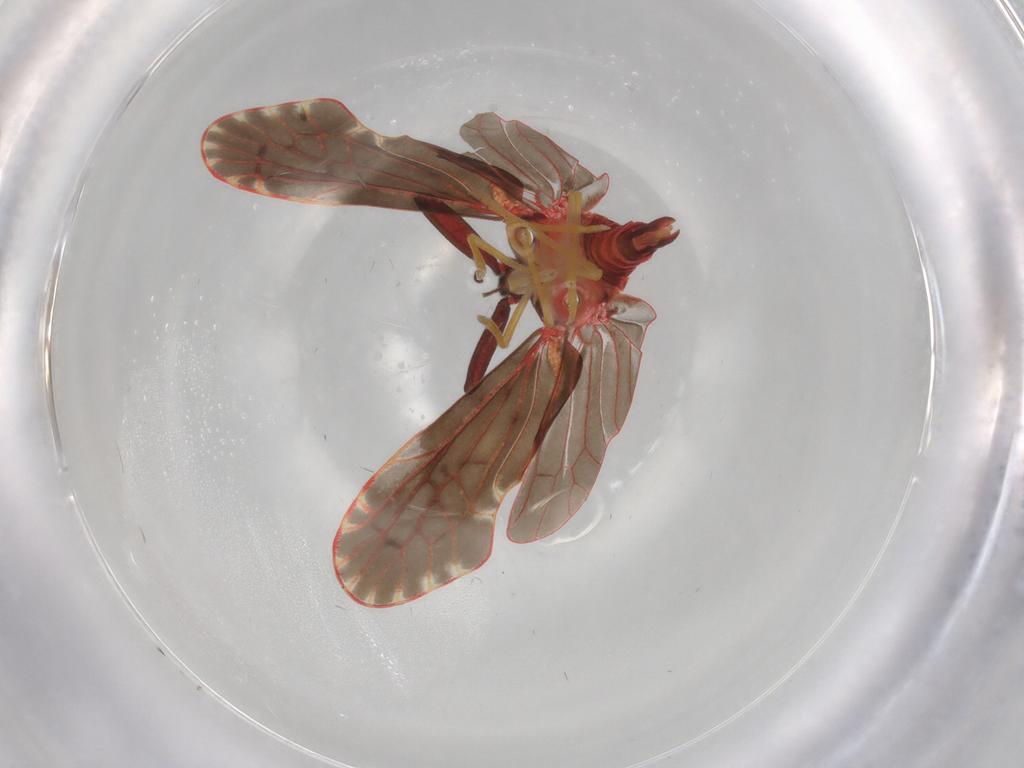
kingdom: Animalia
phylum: Arthropoda
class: Insecta
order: Hemiptera
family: Derbidae
